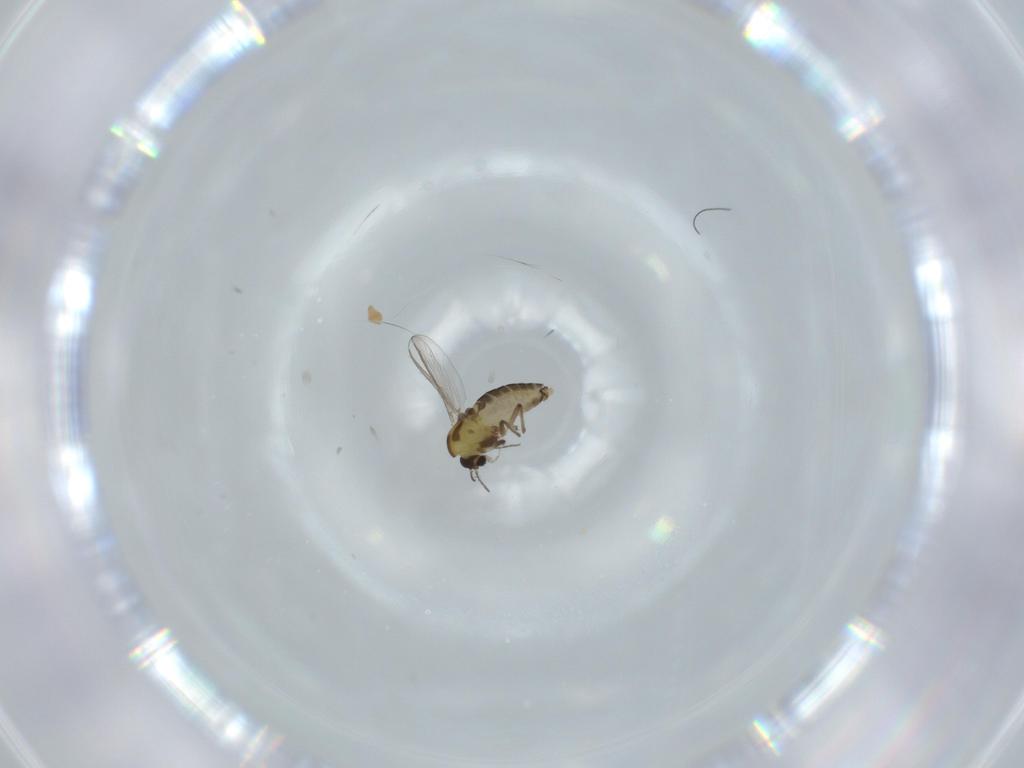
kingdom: Animalia
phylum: Arthropoda
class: Insecta
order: Diptera
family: Chironomidae
